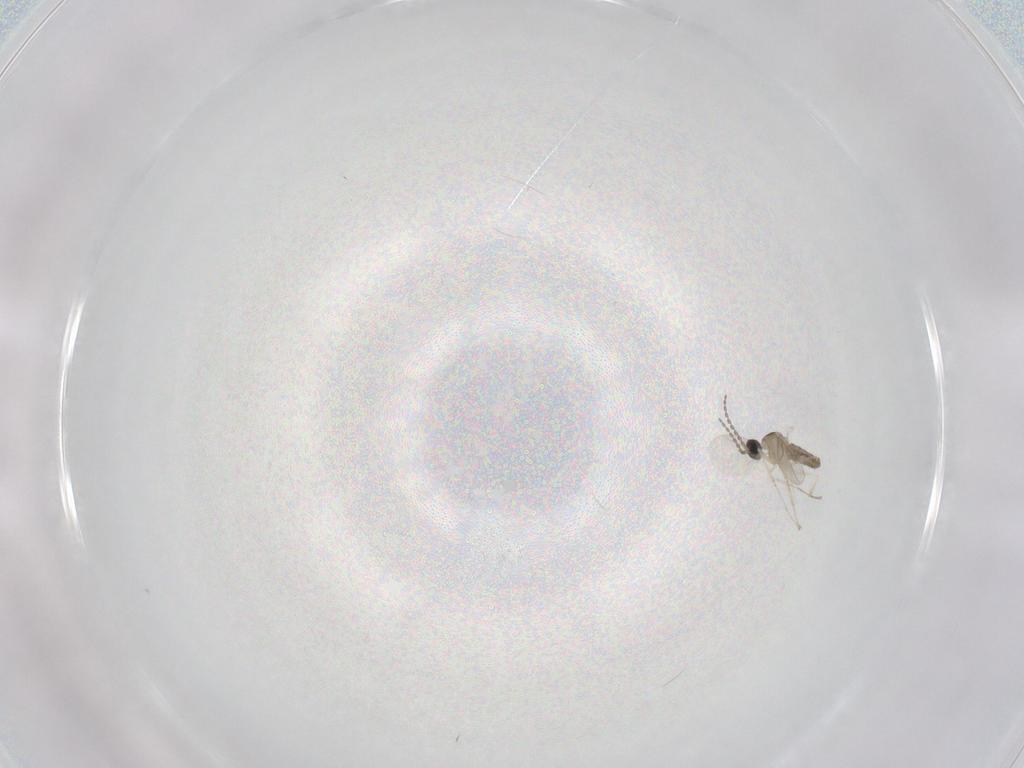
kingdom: Animalia
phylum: Arthropoda
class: Insecta
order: Diptera
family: Cecidomyiidae
